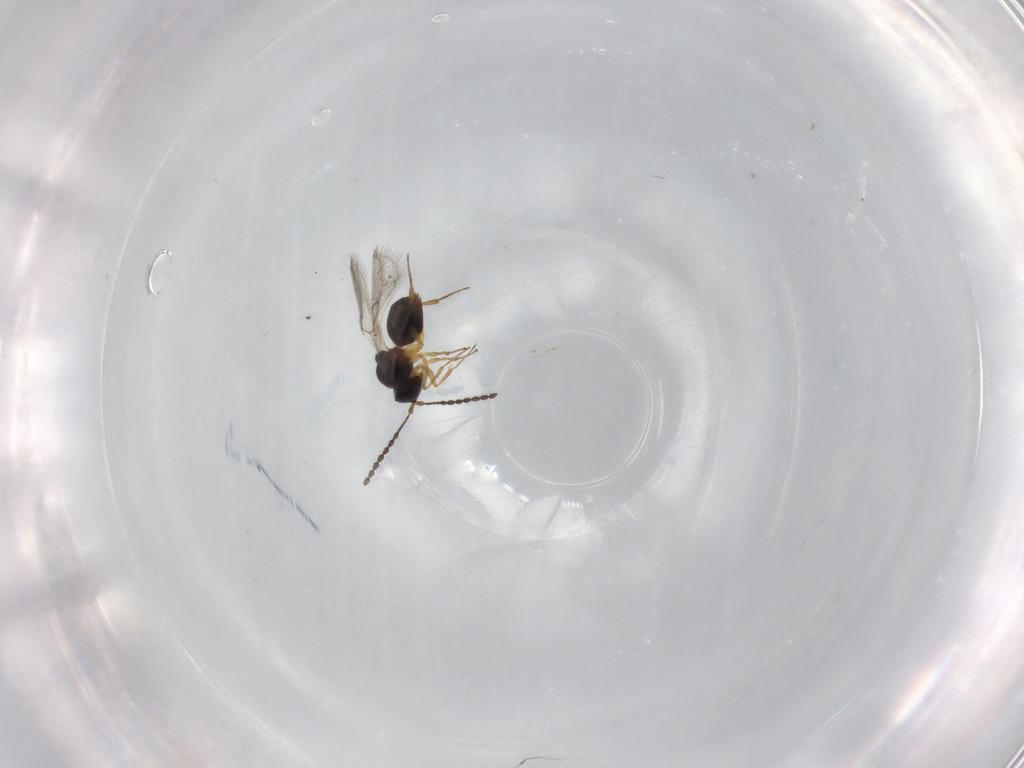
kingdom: Animalia
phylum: Arthropoda
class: Insecta
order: Hymenoptera
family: Figitidae
